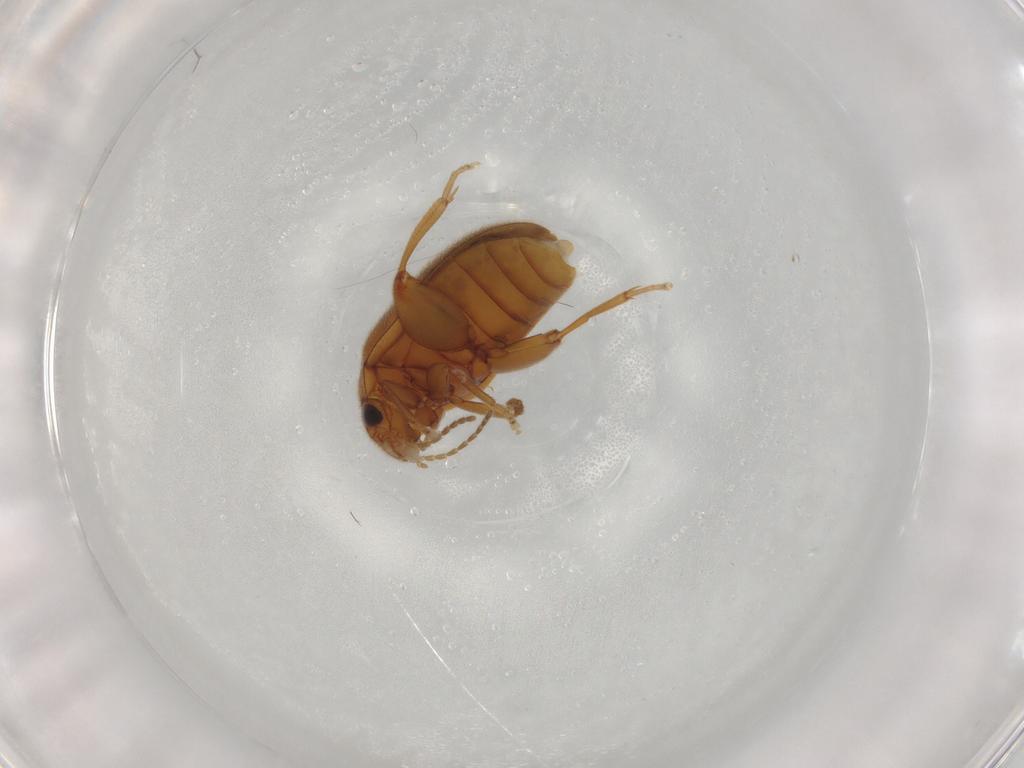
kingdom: Animalia
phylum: Arthropoda
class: Insecta
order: Coleoptera
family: Scirtidae
